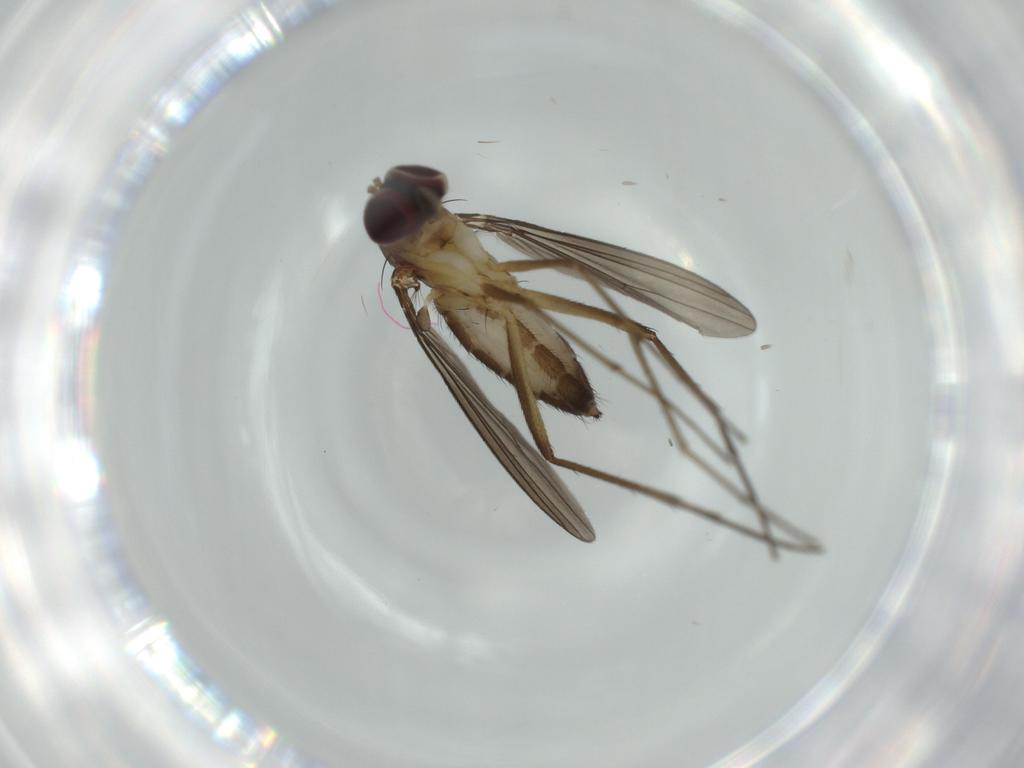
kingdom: Animalia
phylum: Arthropoda
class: Insecta
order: Diptera
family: Dolichopodidae
